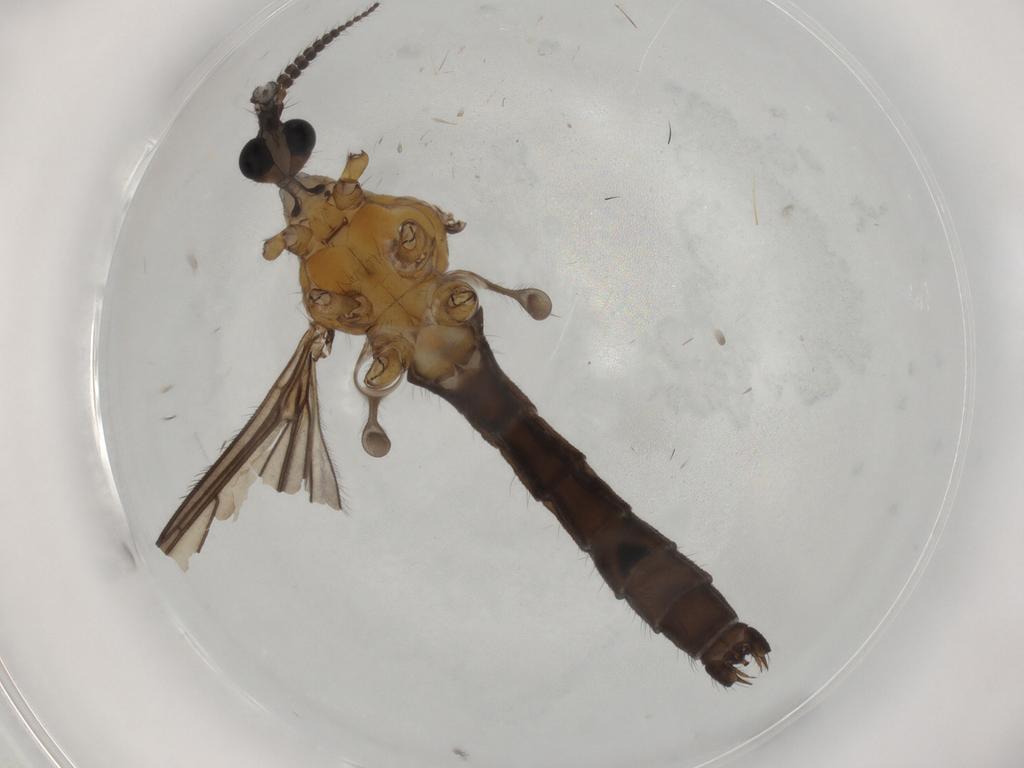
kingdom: Animalia
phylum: Arthropoda
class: Insecta
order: Diptera
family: Limoniidae
